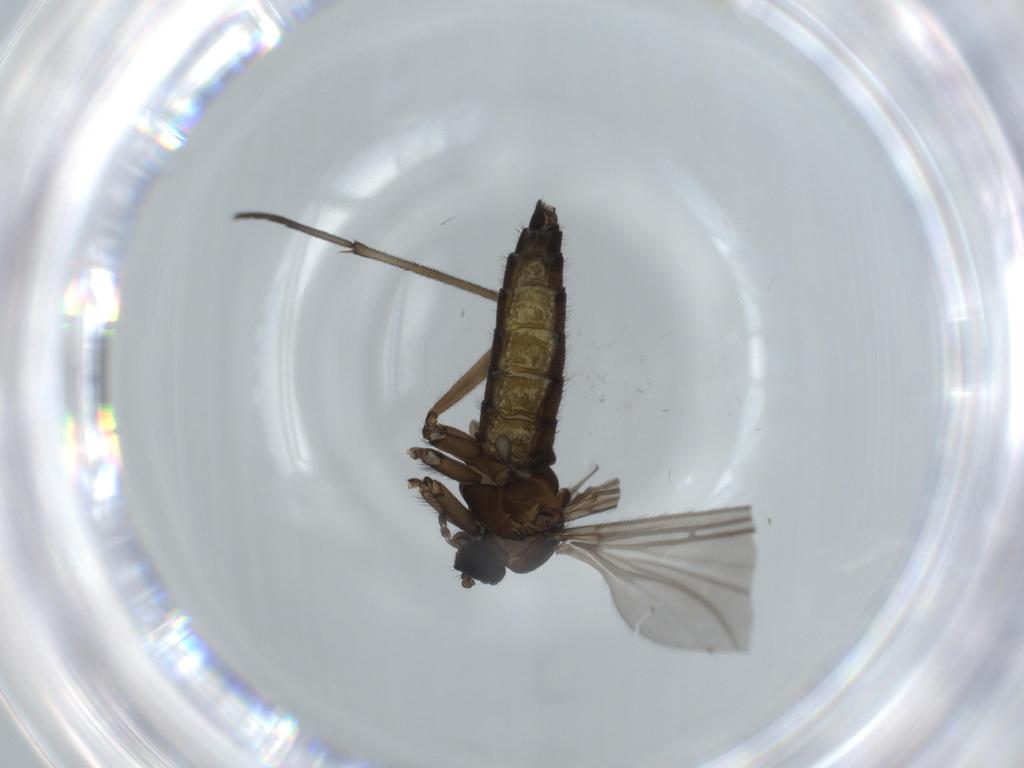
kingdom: Animalia
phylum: Arthropoda
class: Insecta
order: Diptera
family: Sciaridae
